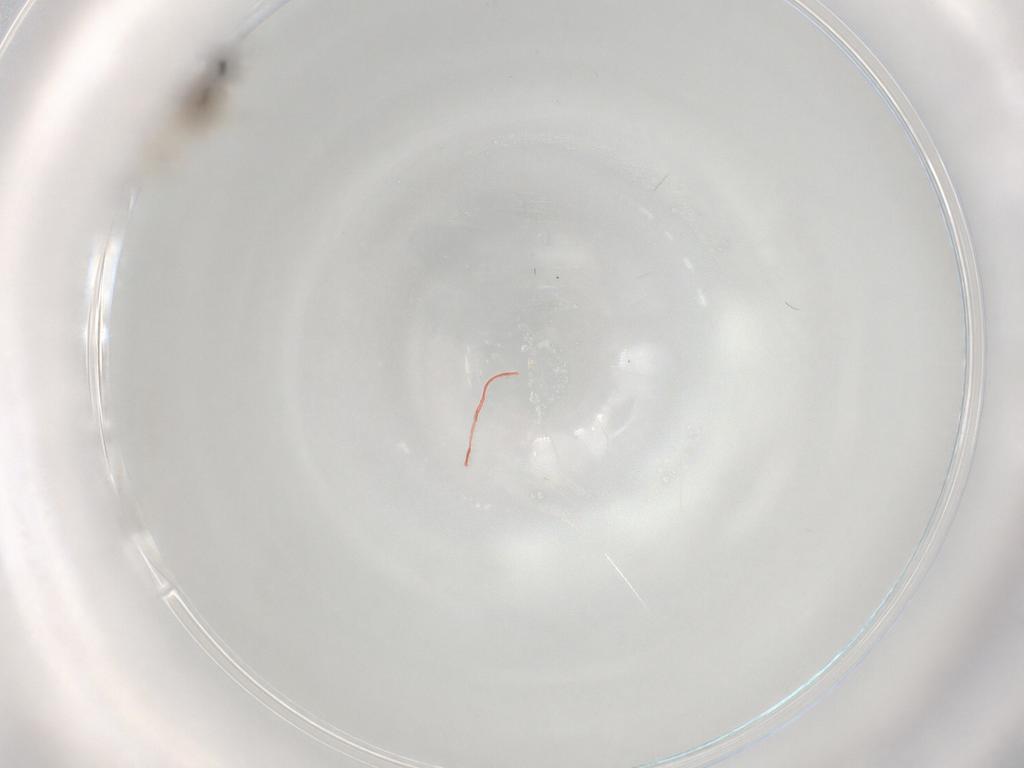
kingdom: Animalia
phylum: Arthropoda
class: Insecta
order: Diptera
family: Cecidomyiidae
